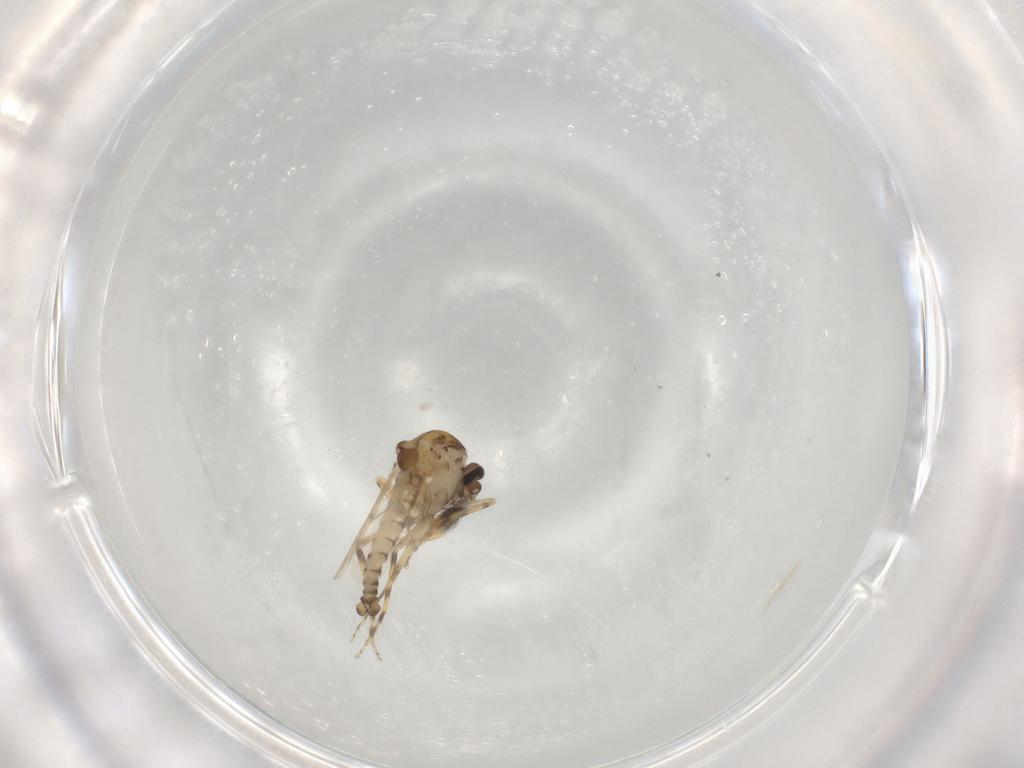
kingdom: Animalia
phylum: Arthropoda
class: Insecta
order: Diptera
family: Ceratopogonidae
